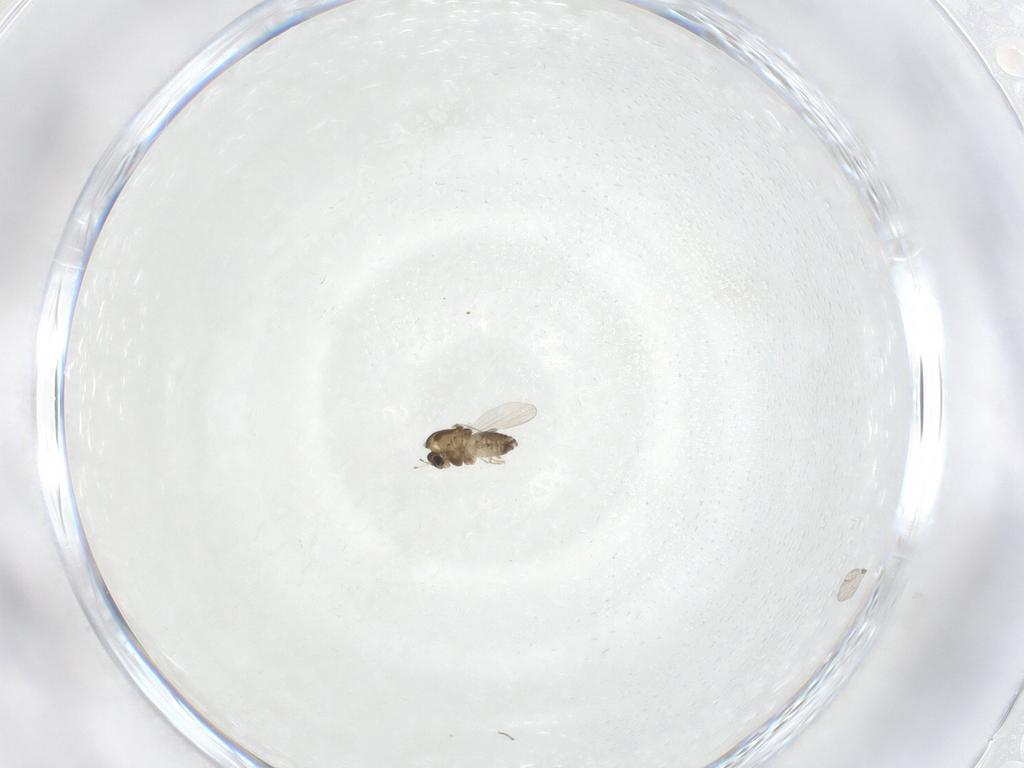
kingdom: Animalia
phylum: Arthropoda
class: Insecta
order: Diptera
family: Chironomidae
